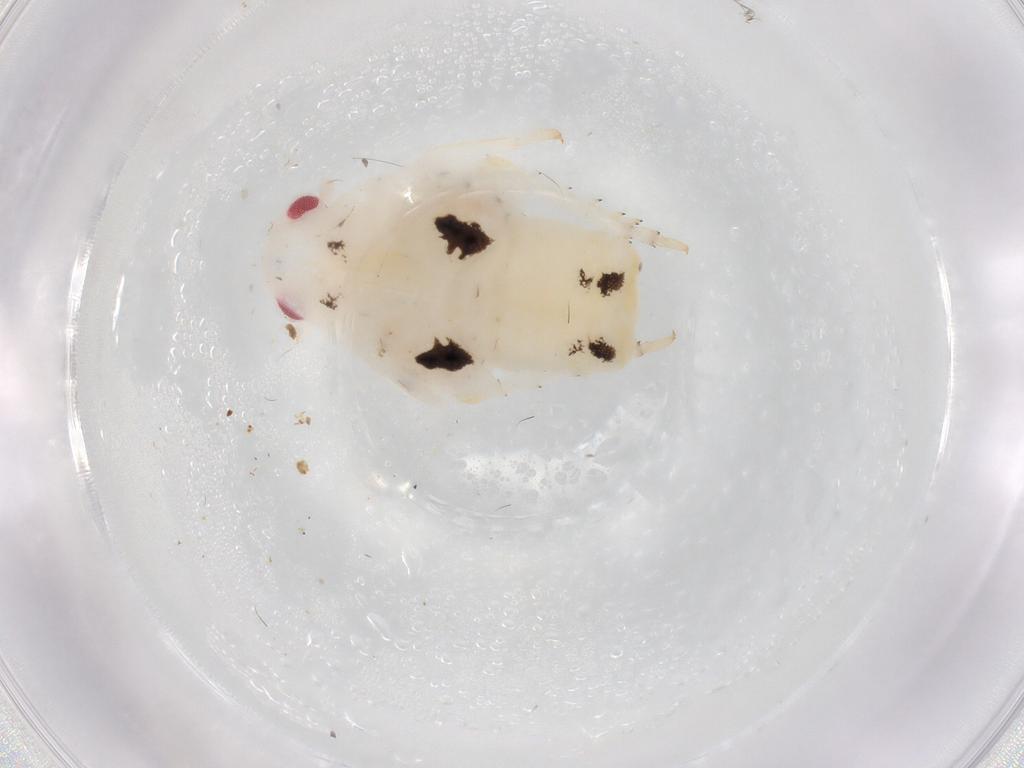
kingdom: Animalia
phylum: Arthropoda
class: Insecta
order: Hemiptera
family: Flatidae
